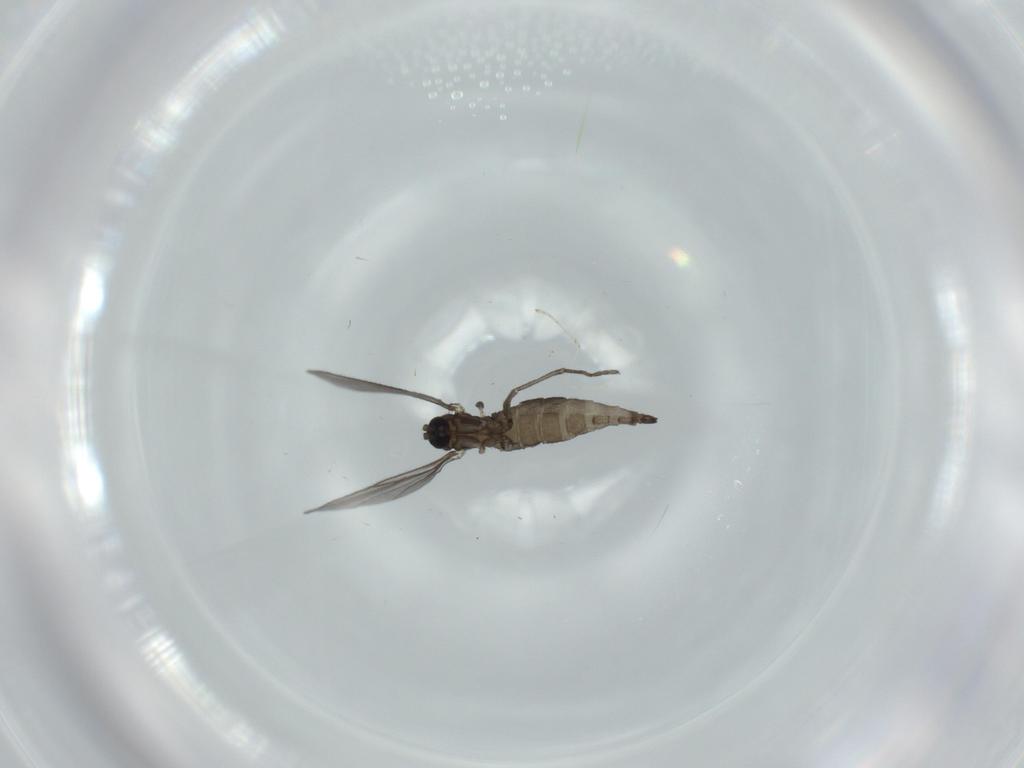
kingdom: Animalia
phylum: Arthropoda
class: Insecta
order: Diptera
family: Cecidomyiidae
